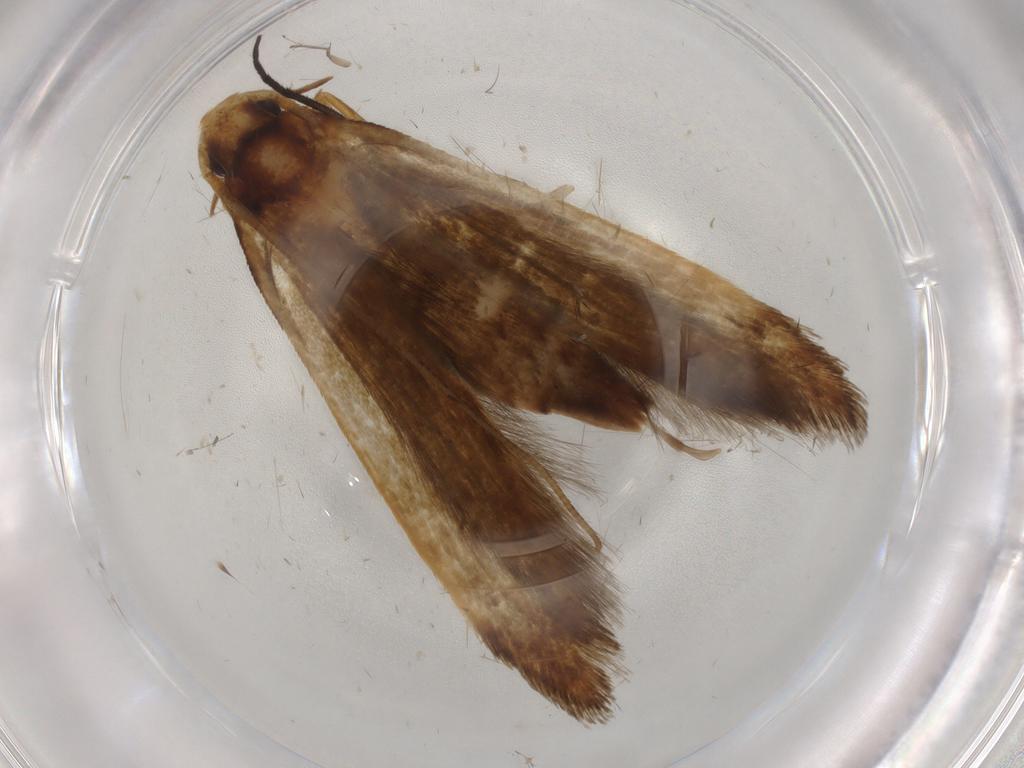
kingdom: Animalia
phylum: Arthropoda
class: Insecta
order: Lepidoptera
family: Tineidae
